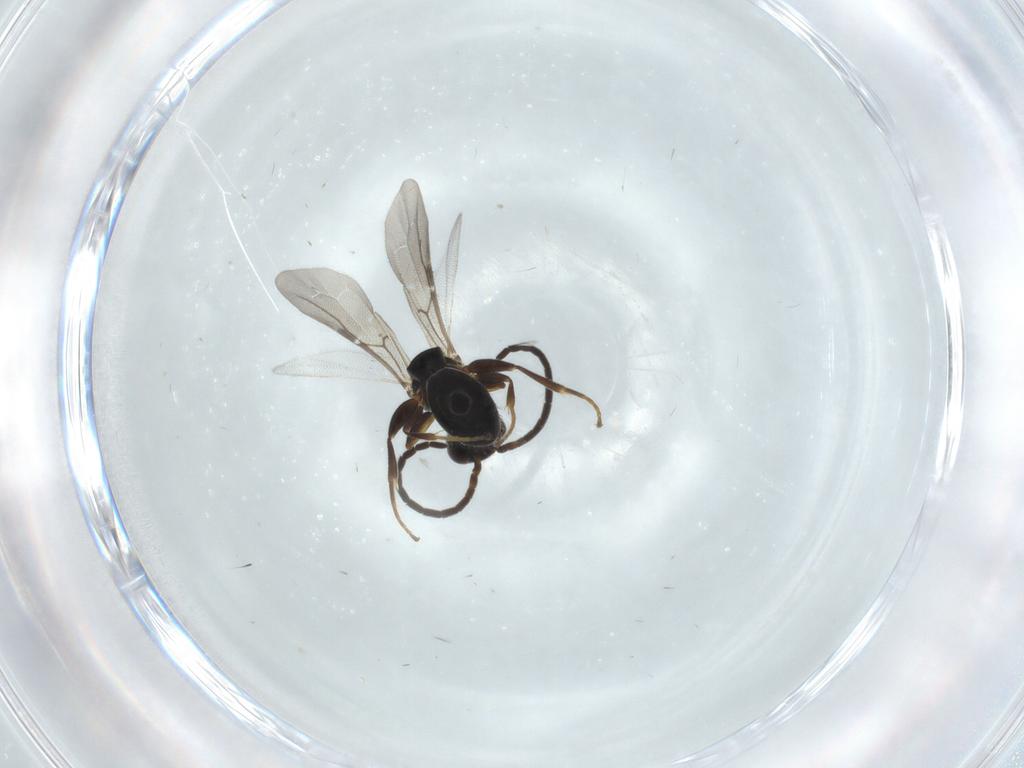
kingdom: Animalia
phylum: Arthropoda
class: Insecta
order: Hymenoptera
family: Bethylidae
